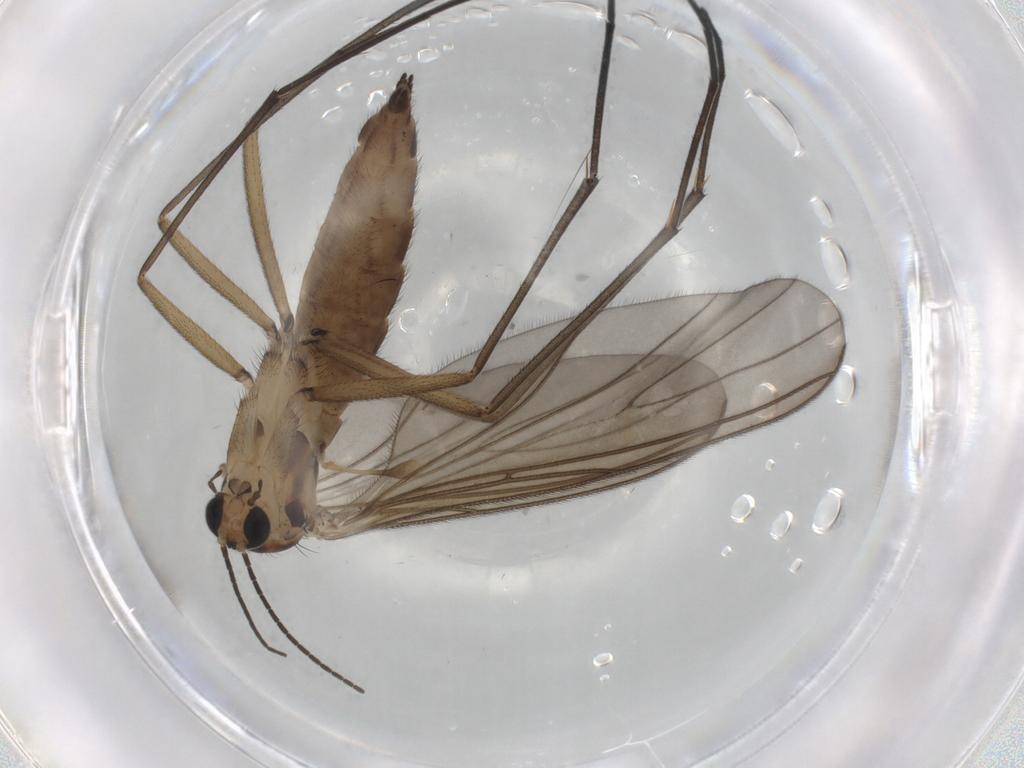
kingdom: Animalia
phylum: Arthropoda
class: Insecta
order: Diptera
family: Sciaridae
